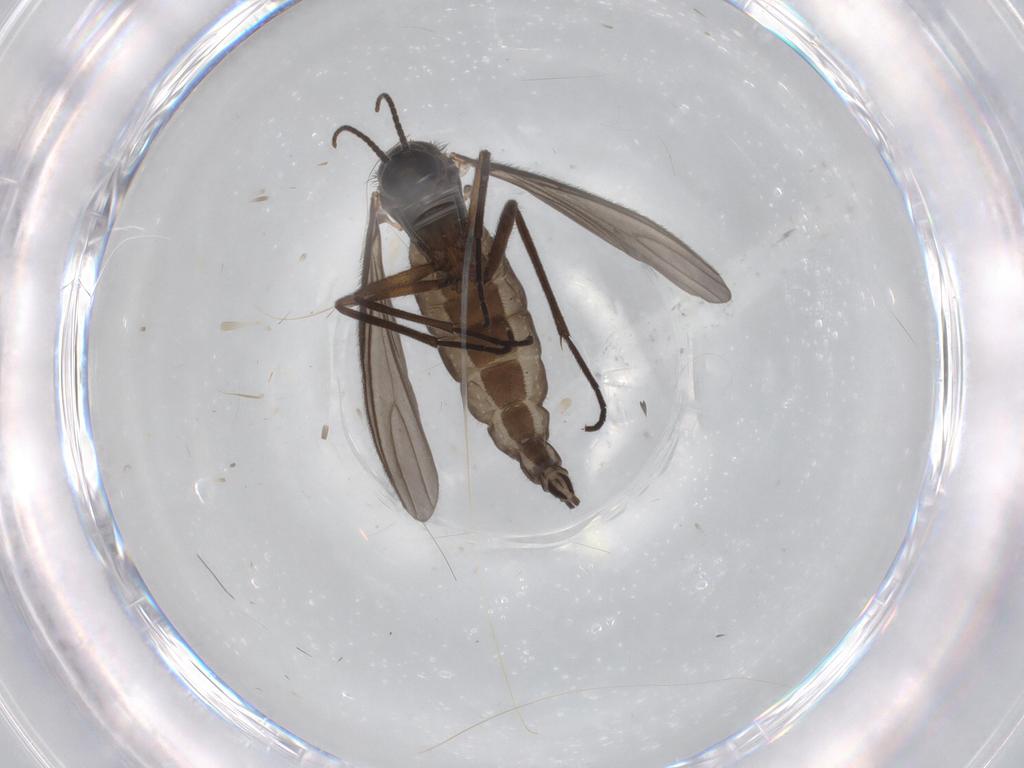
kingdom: Animalia
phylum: Arthropoda
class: Insecta
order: Diptera
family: Sciaridae
